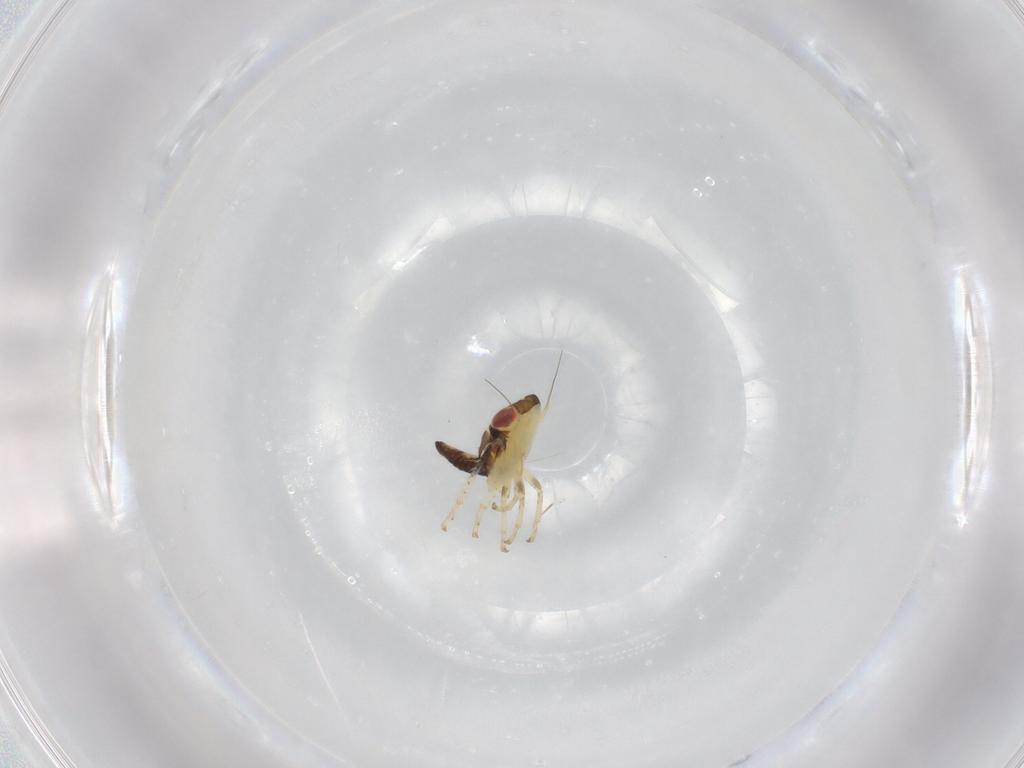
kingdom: Animalia
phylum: Arthropoda
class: Insecta
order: Hemiptera
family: Cicadellidae
